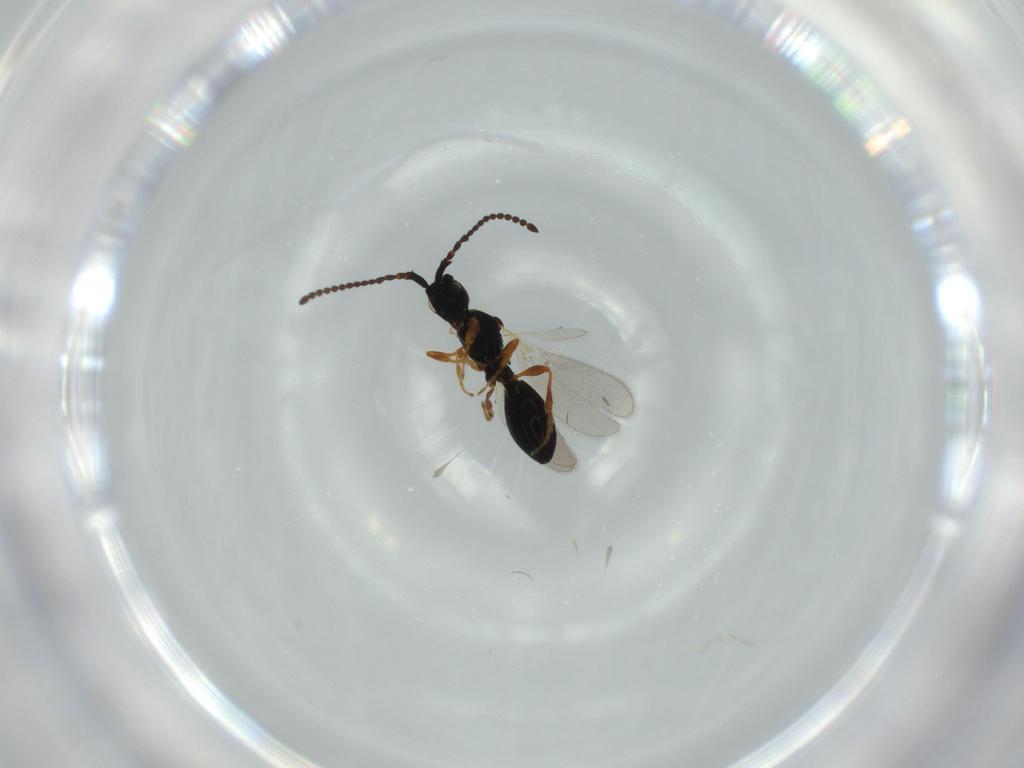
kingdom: Animalia
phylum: Arthropoda
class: Insecta
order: Hymenoptera
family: Diapriidae
